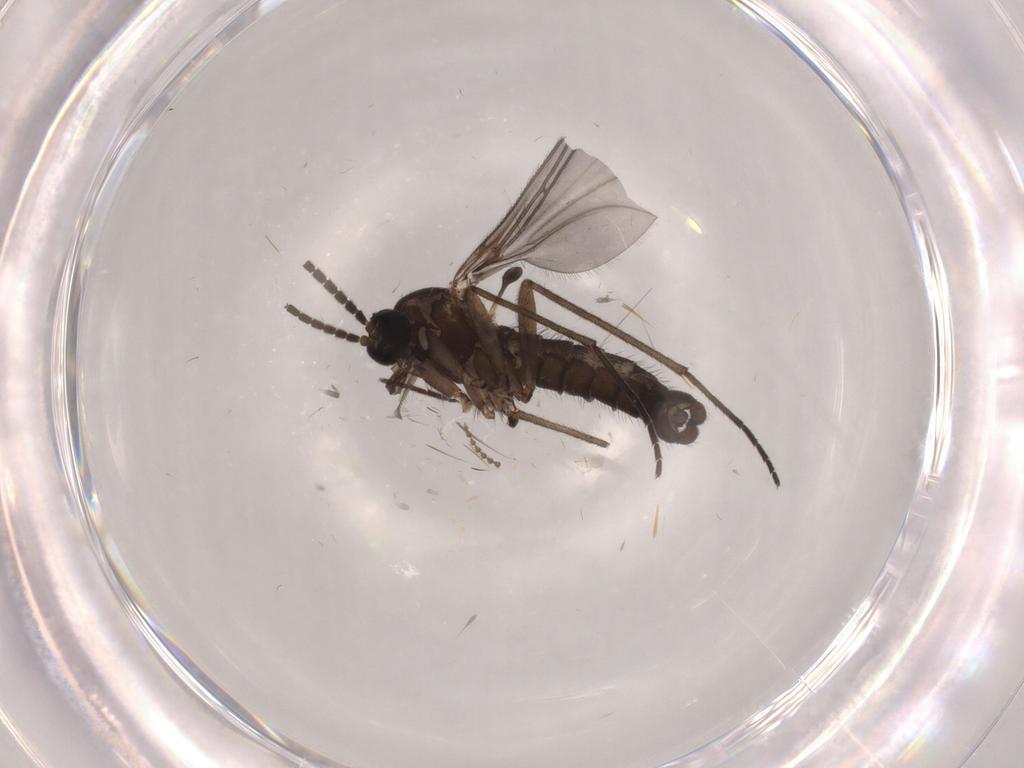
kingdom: Animalia
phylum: Arthropoda
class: Insecta
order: Diptera
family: Sciaridae
